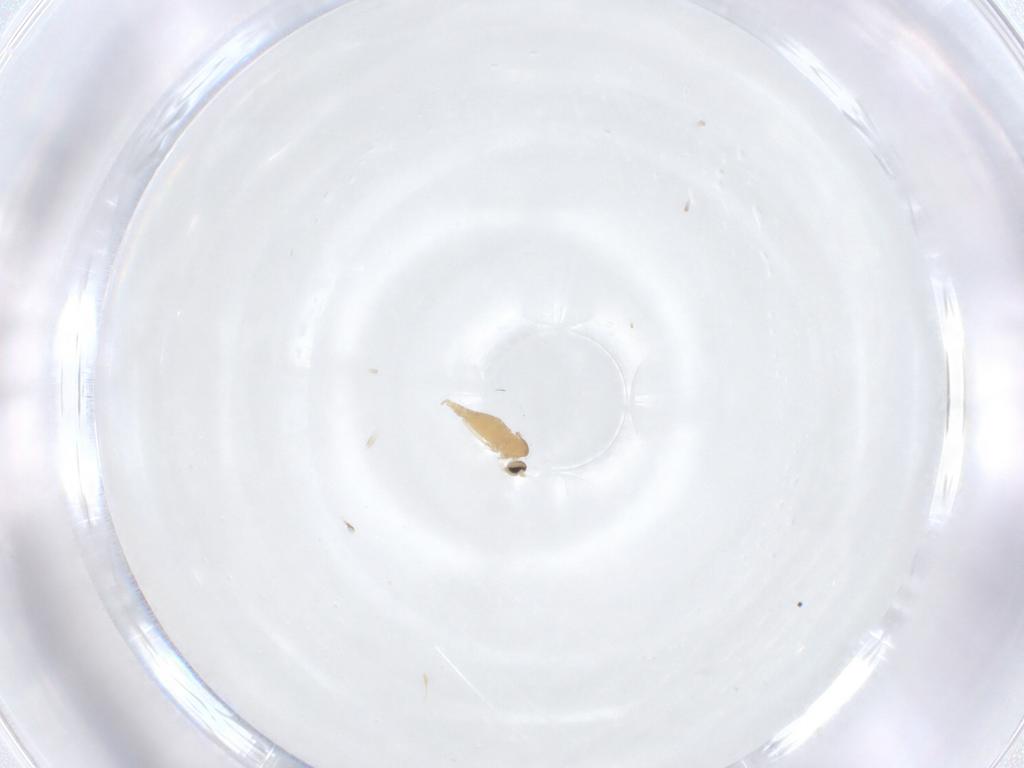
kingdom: Animalia
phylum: Arthropoda
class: Insecta
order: Diptera
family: Cecidomyiidae
